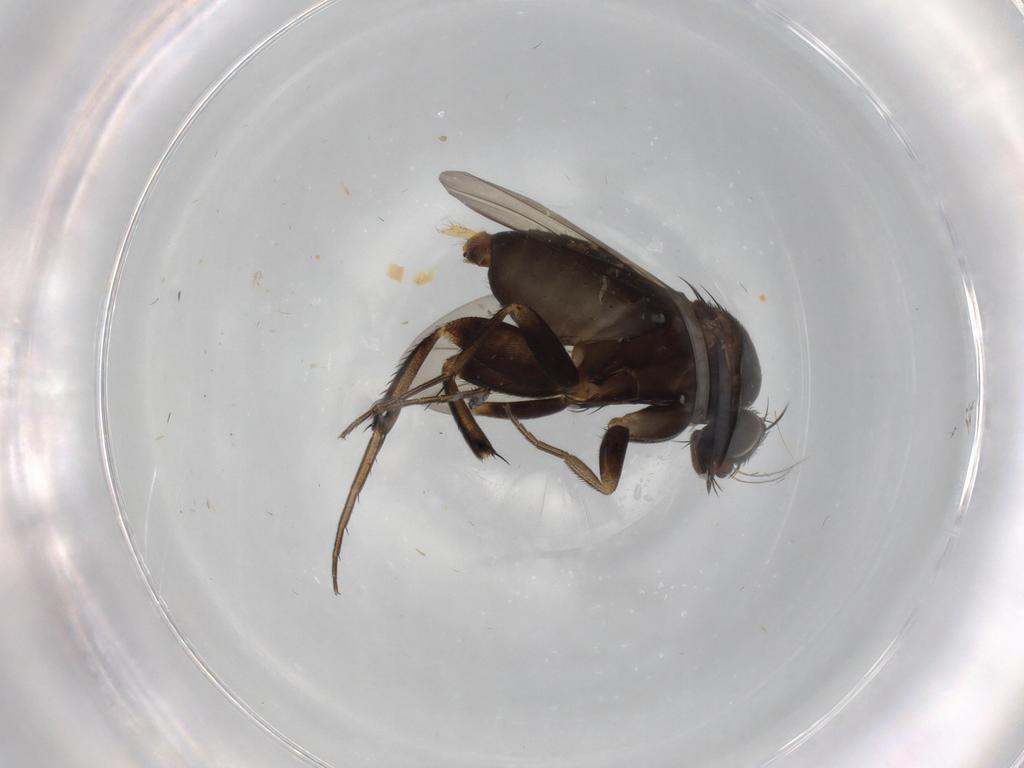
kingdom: Animalia
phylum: Arthropoda
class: Insecta
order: Diptera
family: Phoridae
